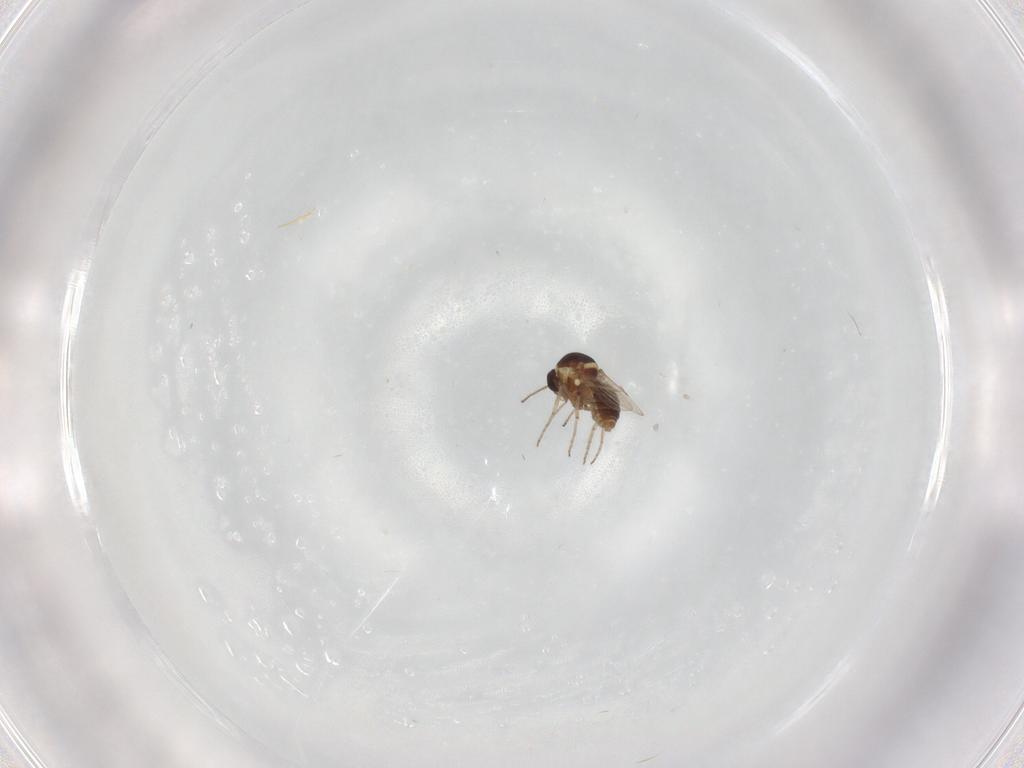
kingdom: Animalia
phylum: Arthropoda
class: Insecta
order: Diptera
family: Ceratopogonidae
